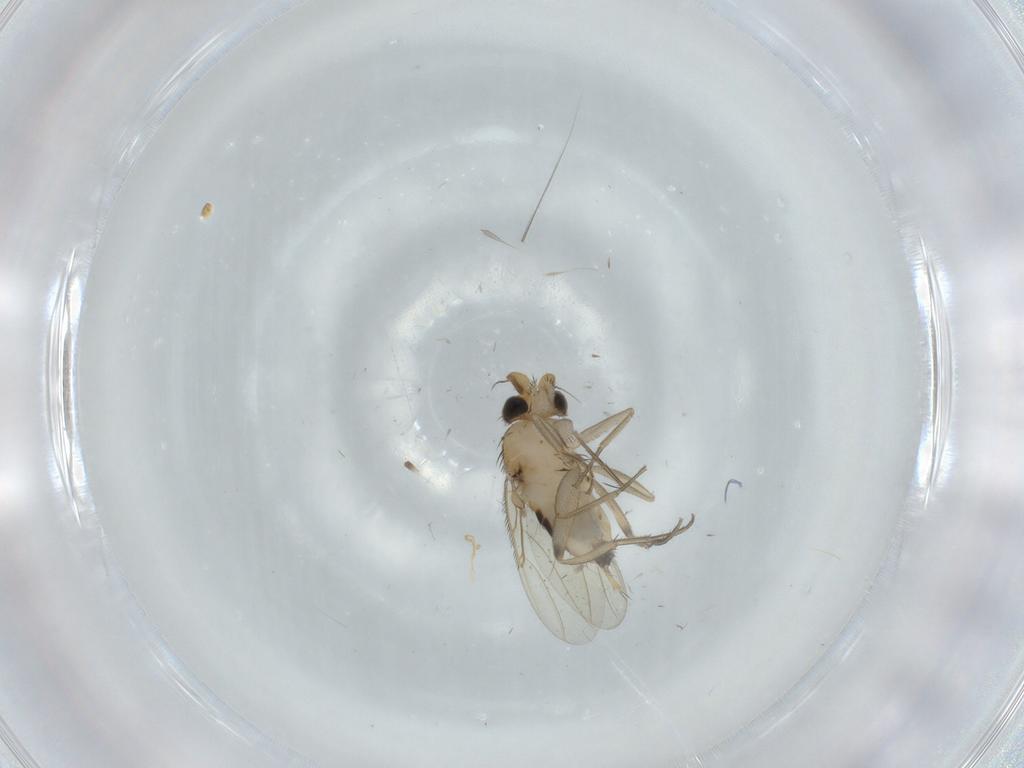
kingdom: Animalia
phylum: Arthropoda
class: Insecta
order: Diptera
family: Phoridae
